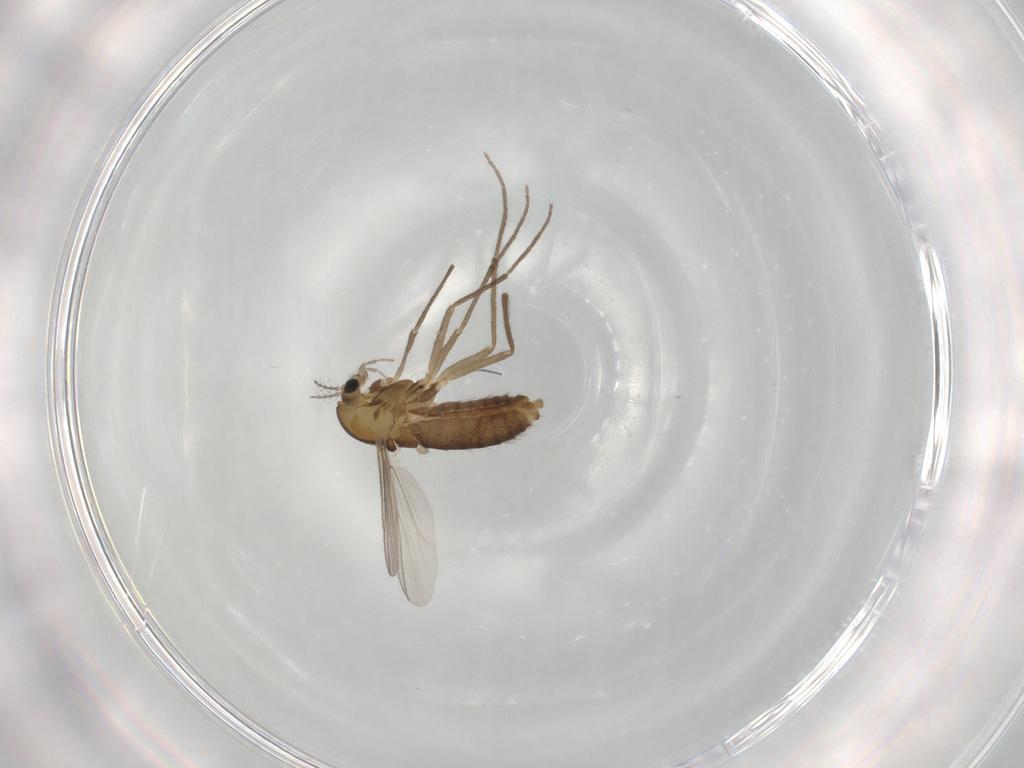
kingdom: Animalia
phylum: Arthropoda
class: Insecta
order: Diptera
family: Chironomidae
